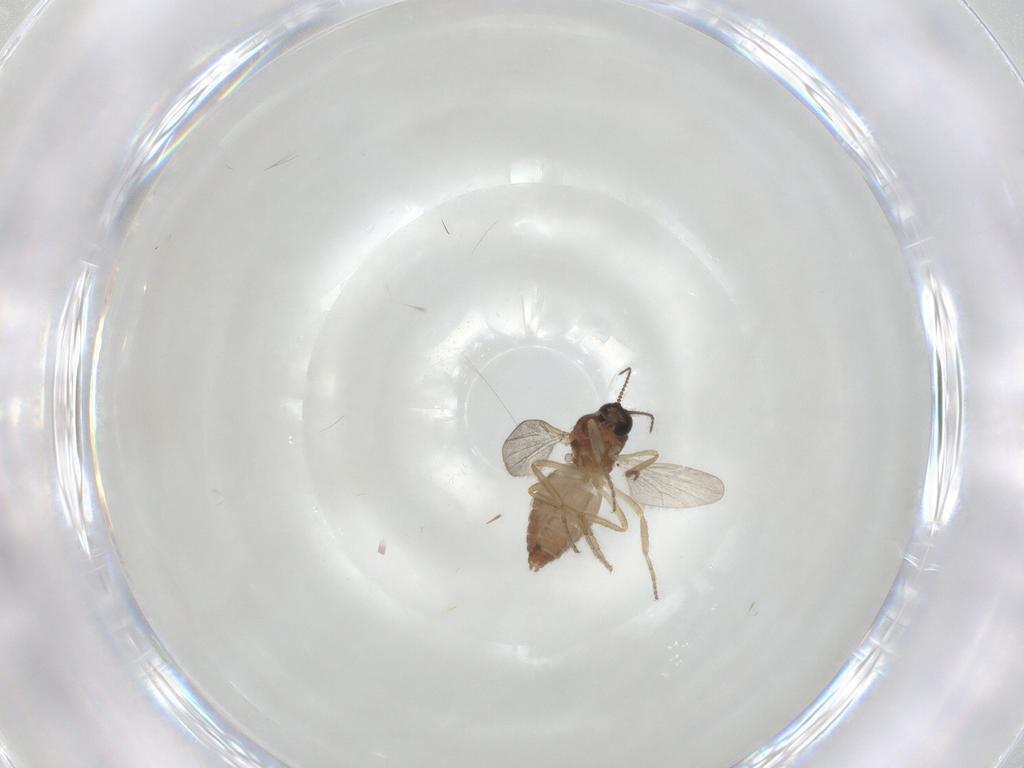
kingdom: Animalia
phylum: Arthropoda
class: Insecta
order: Diptera
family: Ceratopogonidae
